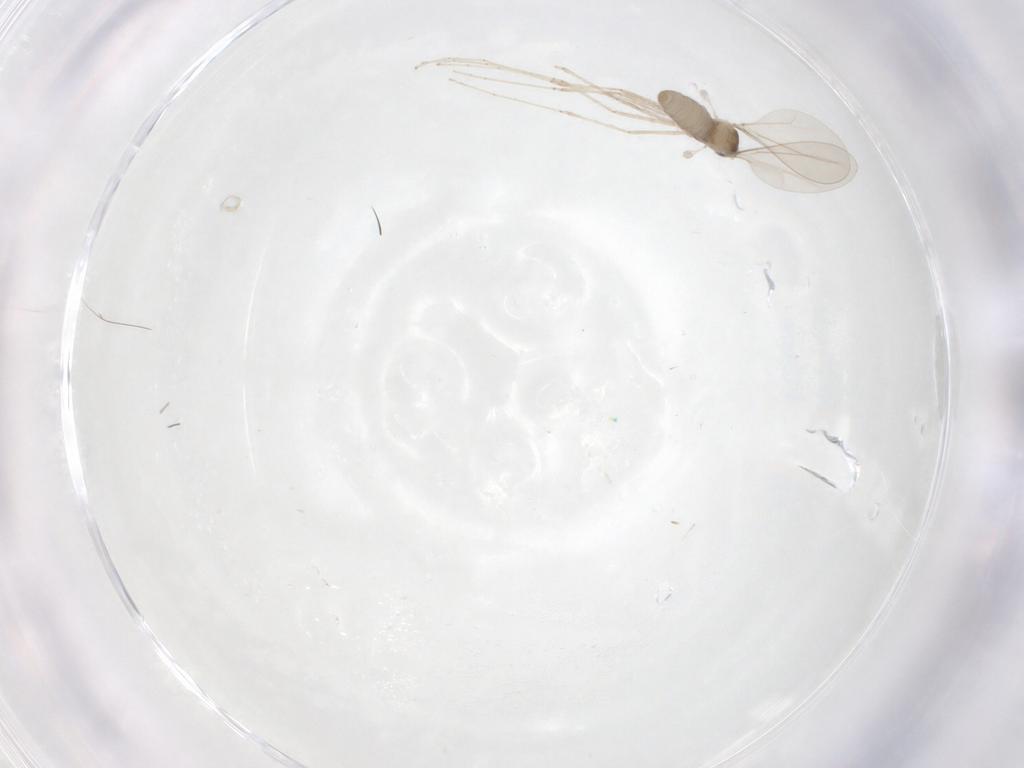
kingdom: Animalia
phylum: Arthropoda
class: Insecta
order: Diptera
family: Cecidomyiidae
